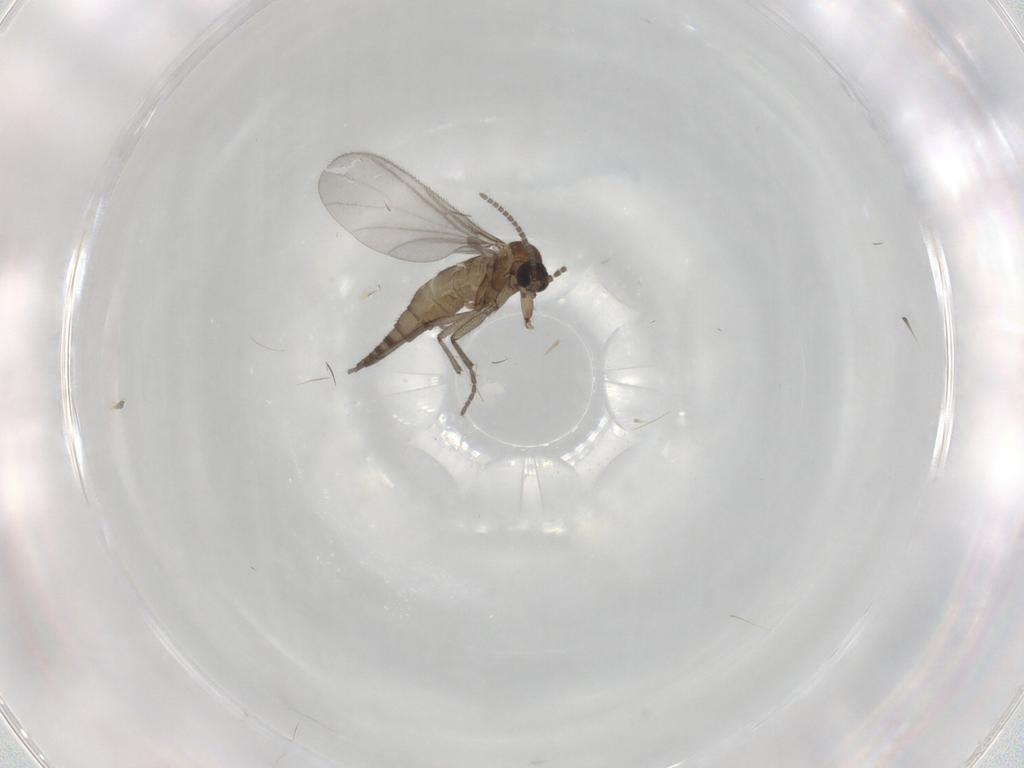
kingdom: Animalia
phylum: Arthropoda
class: Insecta
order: Diptera
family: Sciaridae
